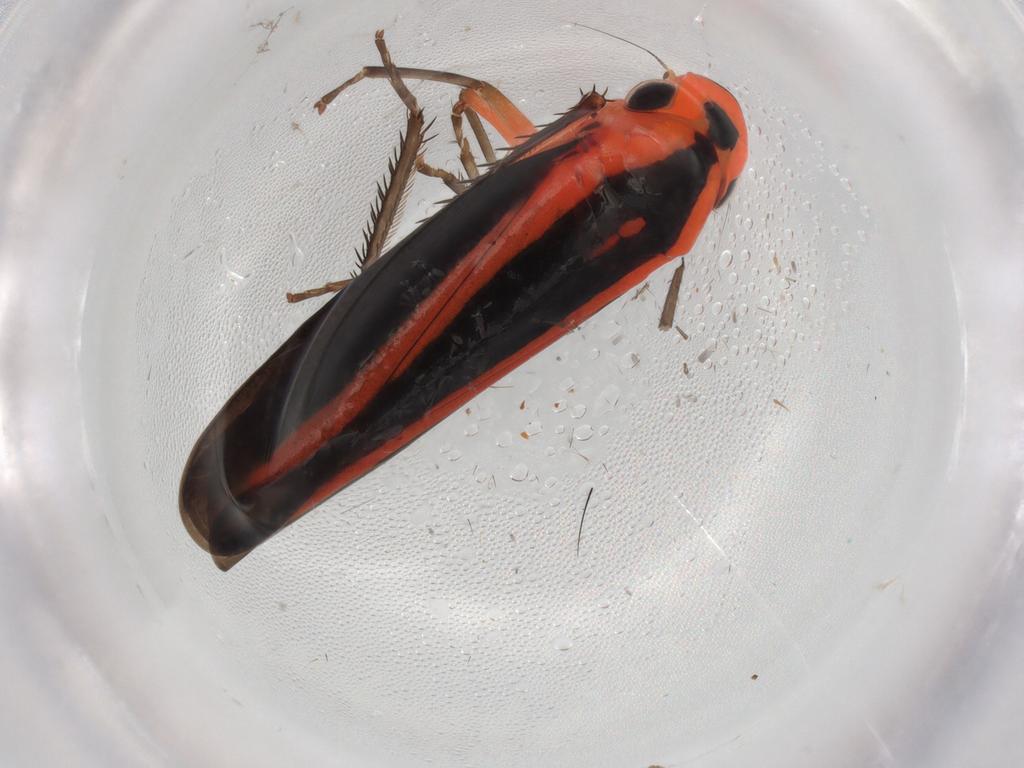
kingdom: Animalia
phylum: Arthropoda
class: Insecta
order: Hemiptera
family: Cicadellidae
